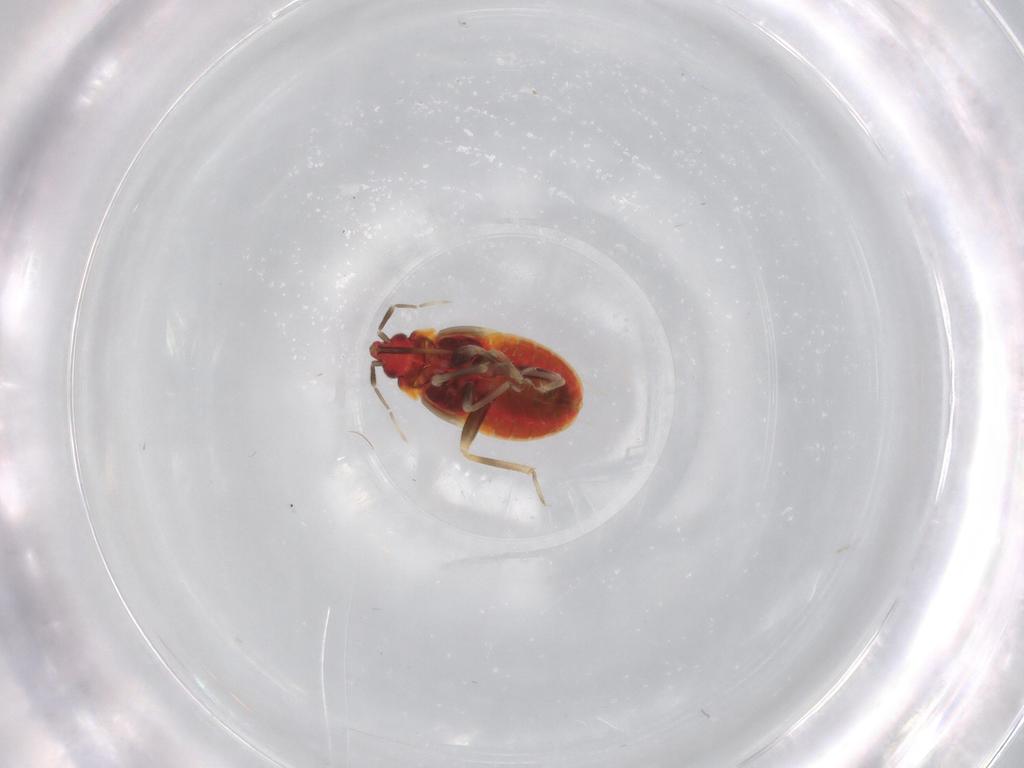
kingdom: Animalia
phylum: Arthropoda
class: Insecta
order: Hemiptera
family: Anthocoridae
